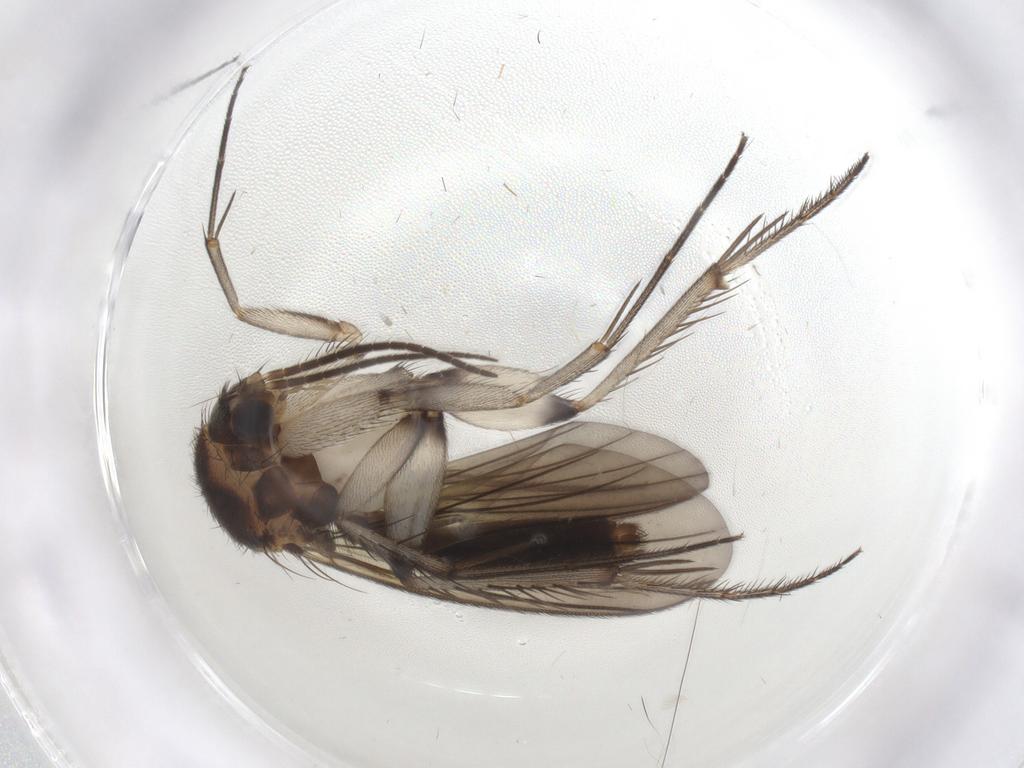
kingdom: Animalia
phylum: Arthropoda
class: Insecta
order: Diptera
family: Mycetophilidae
